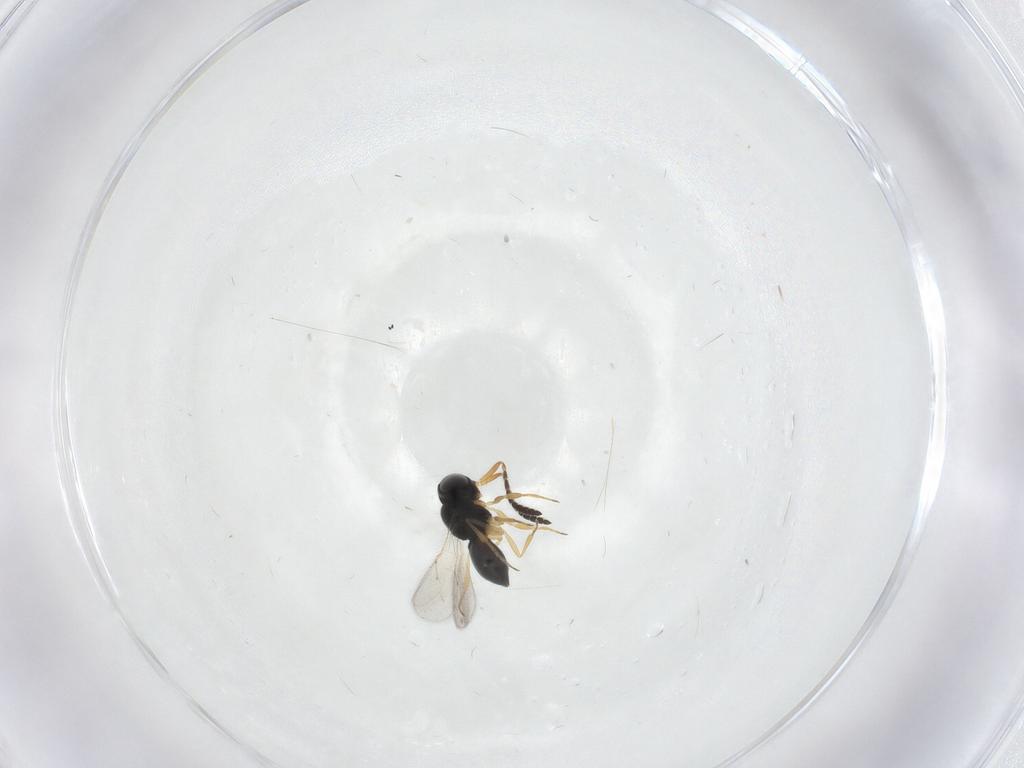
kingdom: Animalia
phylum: Arthropoda
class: Insecta
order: Hymenoptera
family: Scelionidae
